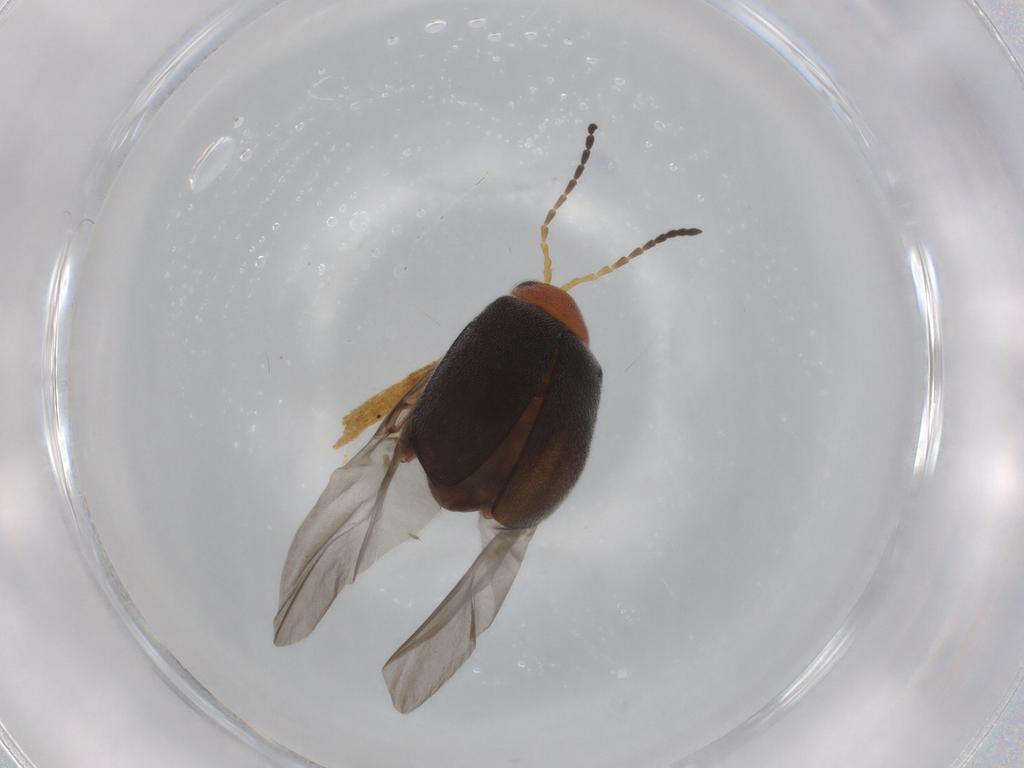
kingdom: Animalia
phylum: Arthropoda
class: Insecta
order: Coleoptera
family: Chrysomelidae
